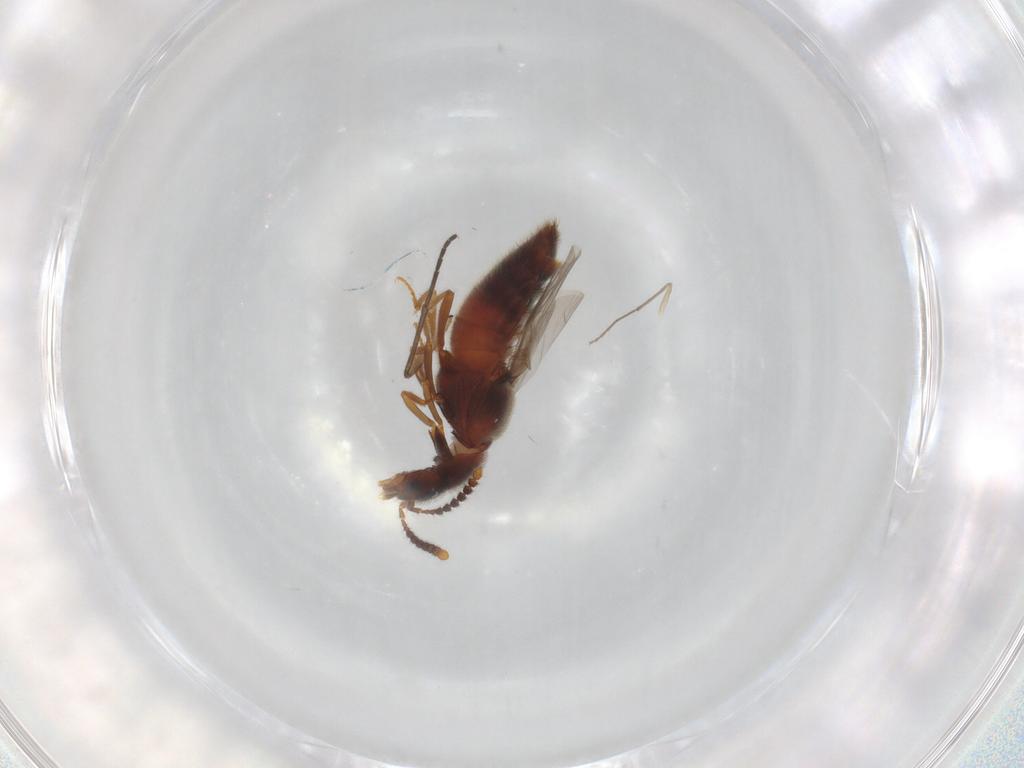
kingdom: Animalia
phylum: Arthropoda
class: Insecta
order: Coleoptera
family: Staphylinidae
